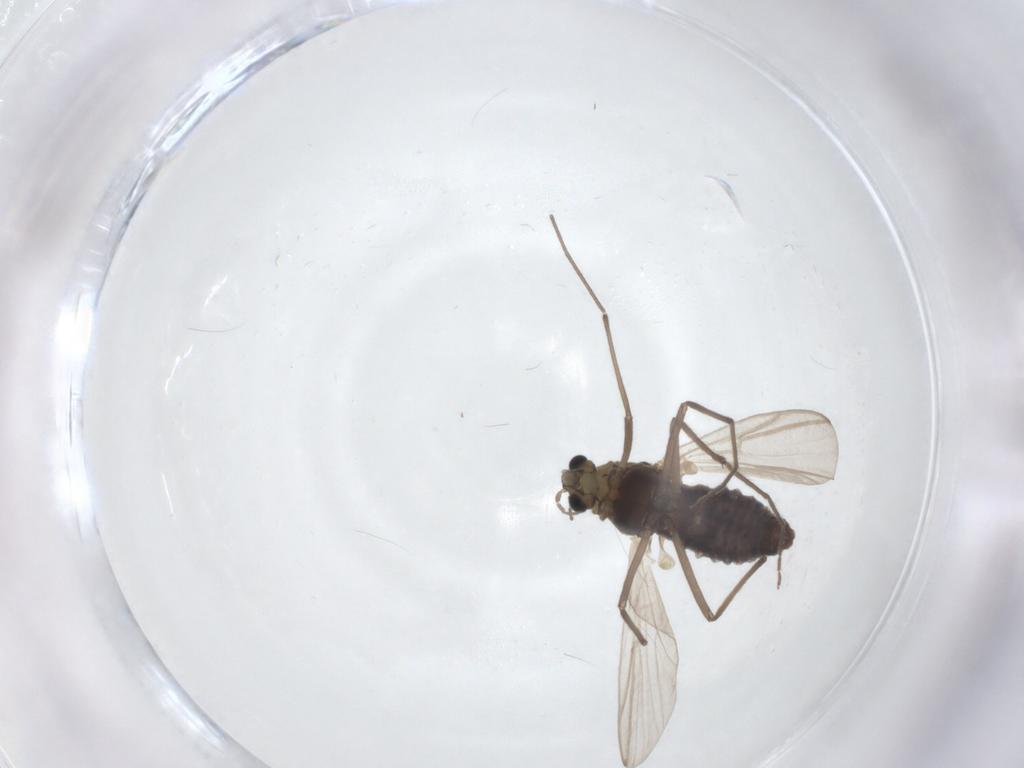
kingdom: Animalia
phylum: Arthropoda
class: Insecta
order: Diptera
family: Chironomidae
